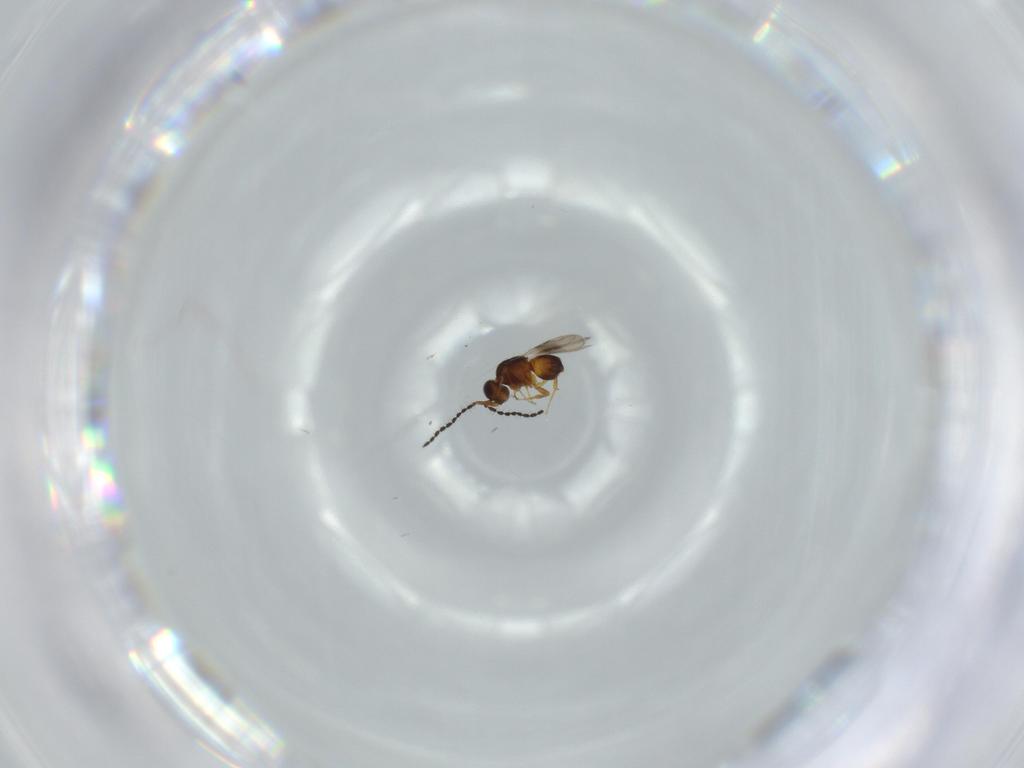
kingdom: Animalia
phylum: Arthropoda
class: Insecta
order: Hymenoptera
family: Ceraphronidae
